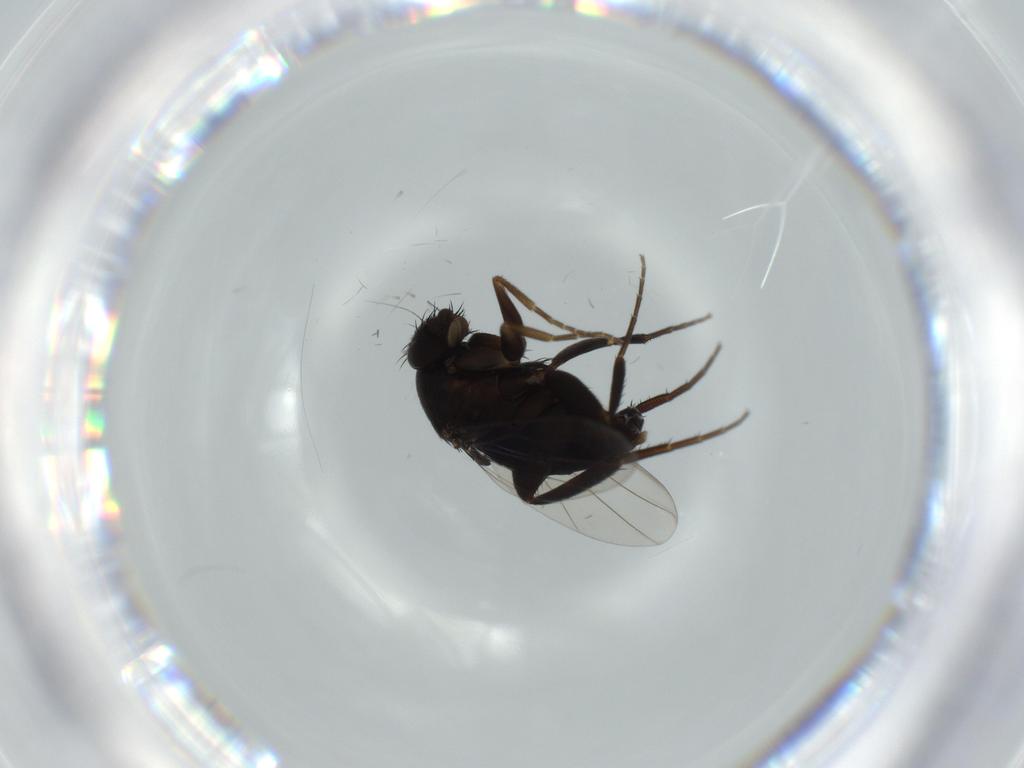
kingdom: Animalia
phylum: Arthropoda
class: Insecta
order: Diptera
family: Phoridae
